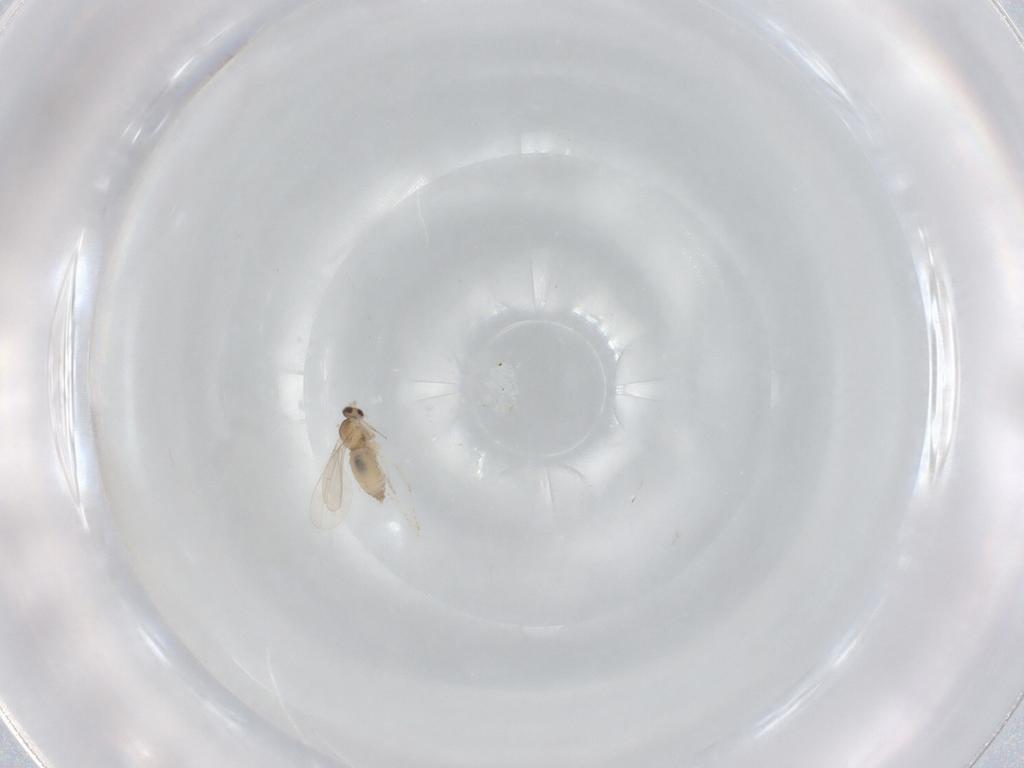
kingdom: Animalia
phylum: Arthropoda
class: Insecta
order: Diptera
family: Cecidomyiidae
